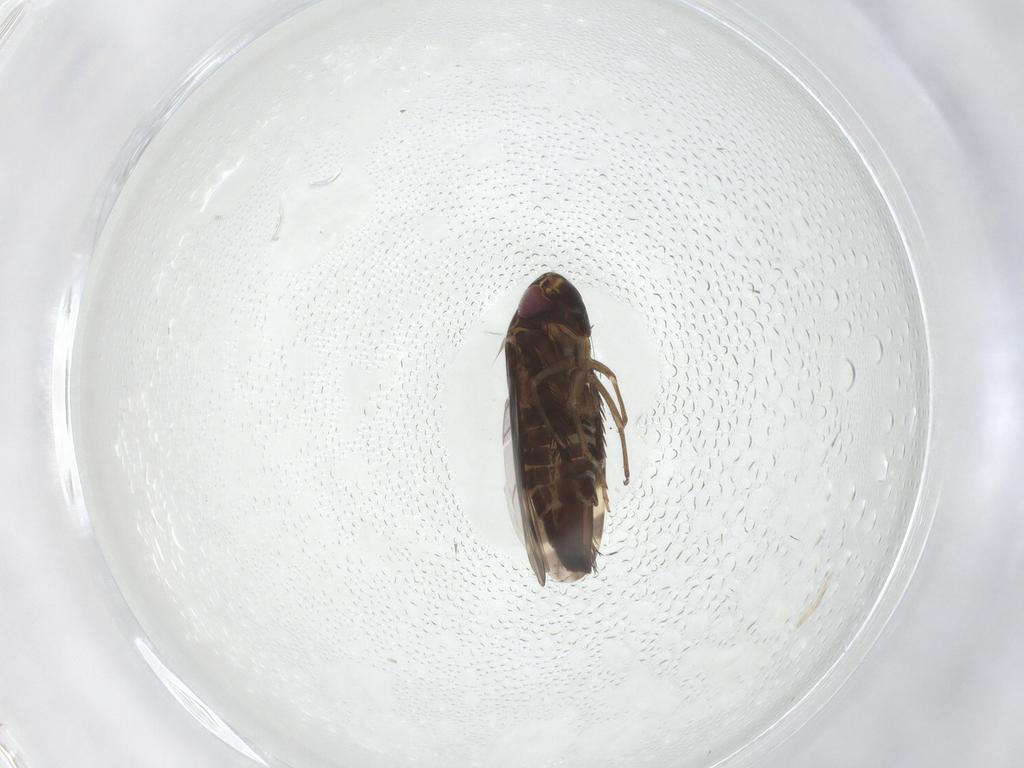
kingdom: Animalia
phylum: Arthropoda
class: Insecta
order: Hemiptera
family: Cicadellidae
